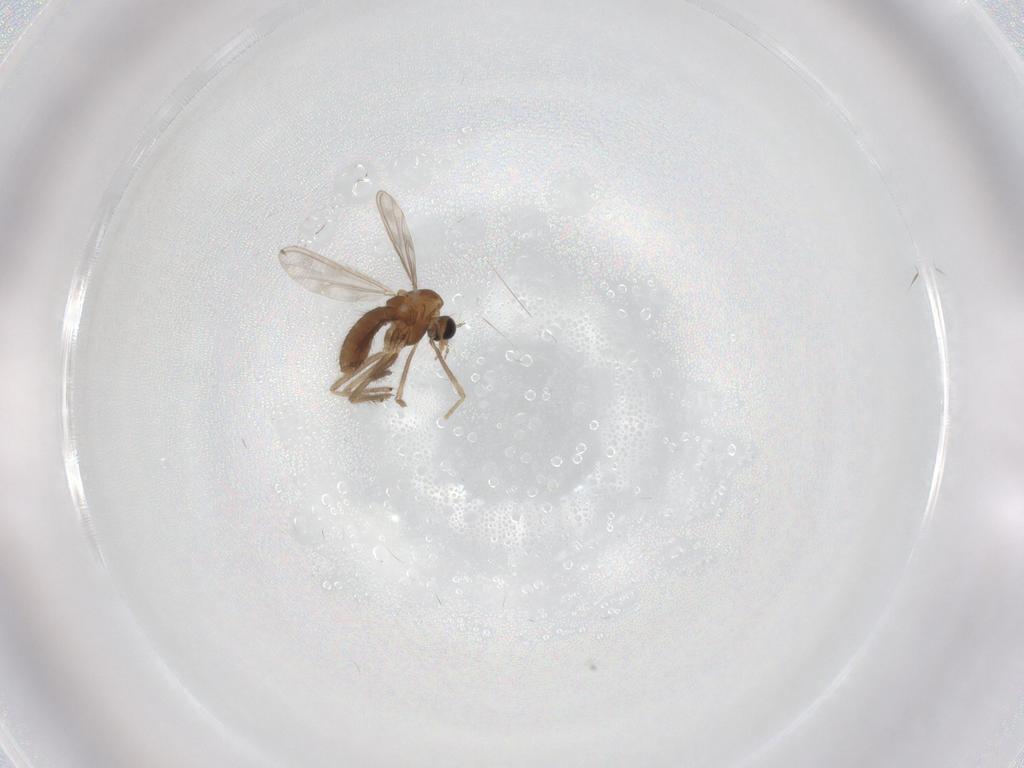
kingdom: Animalia
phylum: Arthropoda
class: Insecta
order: Diptera
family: Chironomidae
